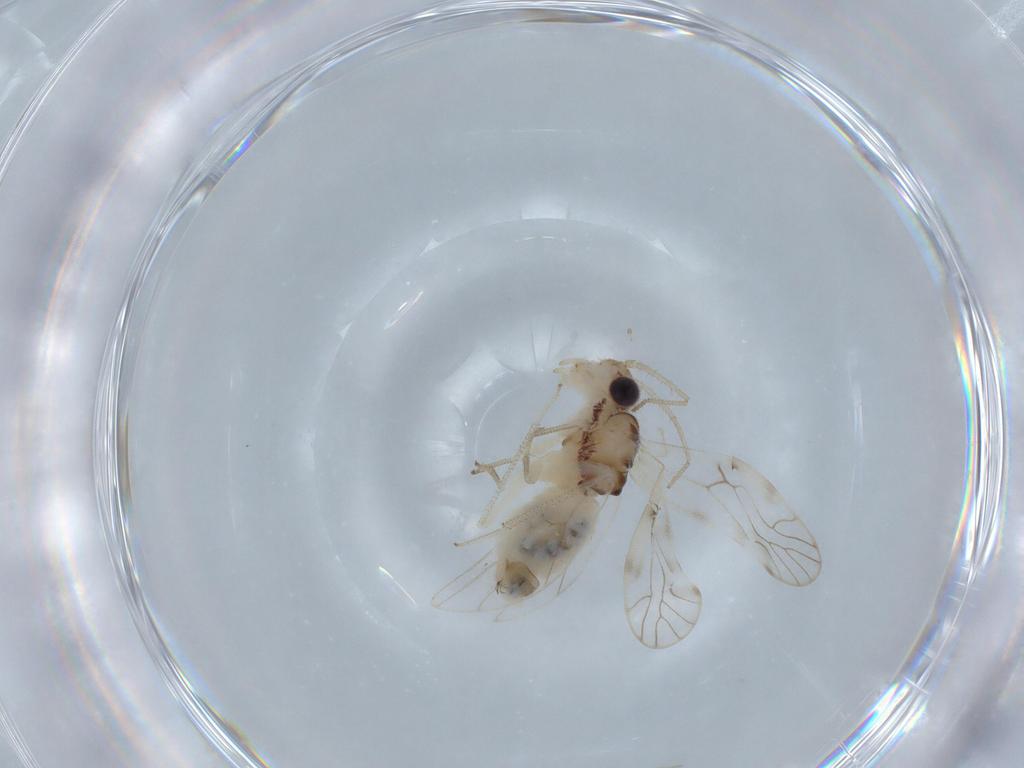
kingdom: Animalia
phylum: Arthropoda
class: Insecta
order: Psocodea
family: Caeciliusidae
